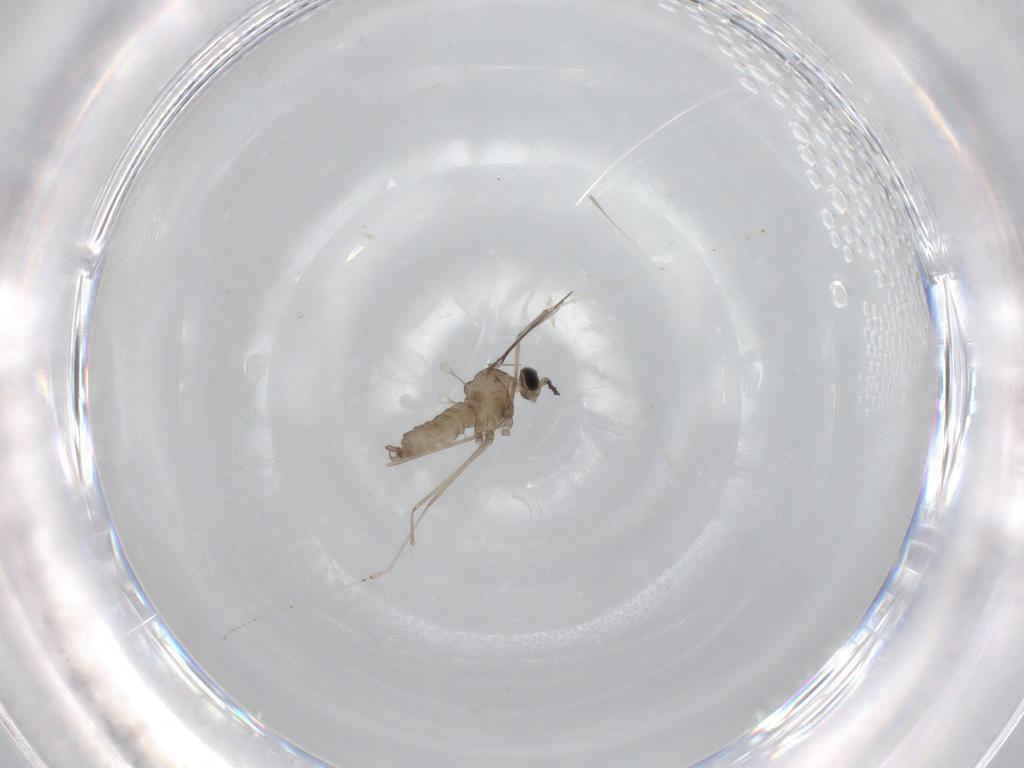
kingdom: Animalia
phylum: Arthropoda
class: Insecta
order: Diptera
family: Cecidomyiidae
